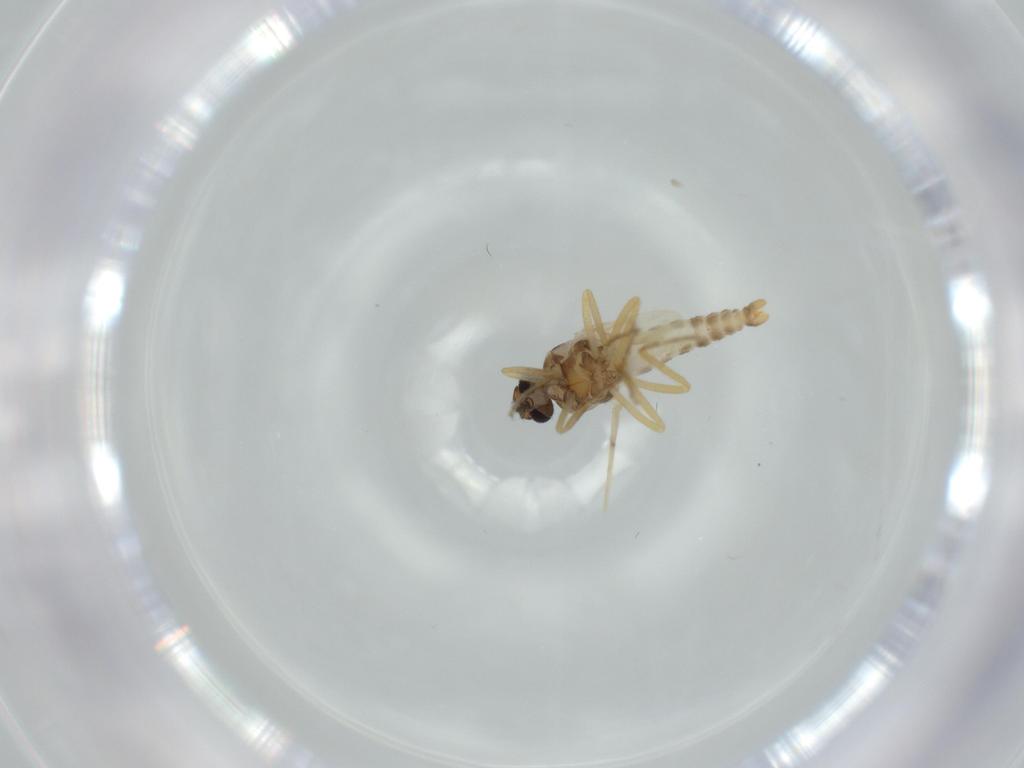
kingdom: Animalia
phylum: Arthropoda
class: Insecta
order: Diptera
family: Ceratopogonidae
